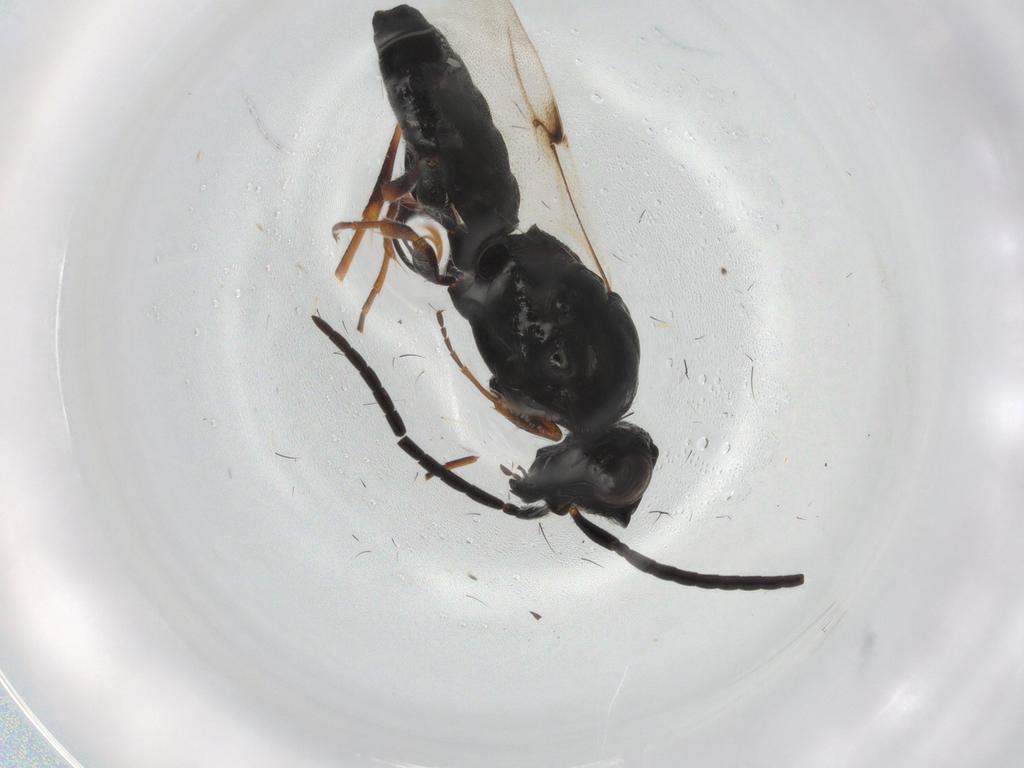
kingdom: Animalia
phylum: Arthropoda
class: Insecta
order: Hymenoptera
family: Scelionidae
